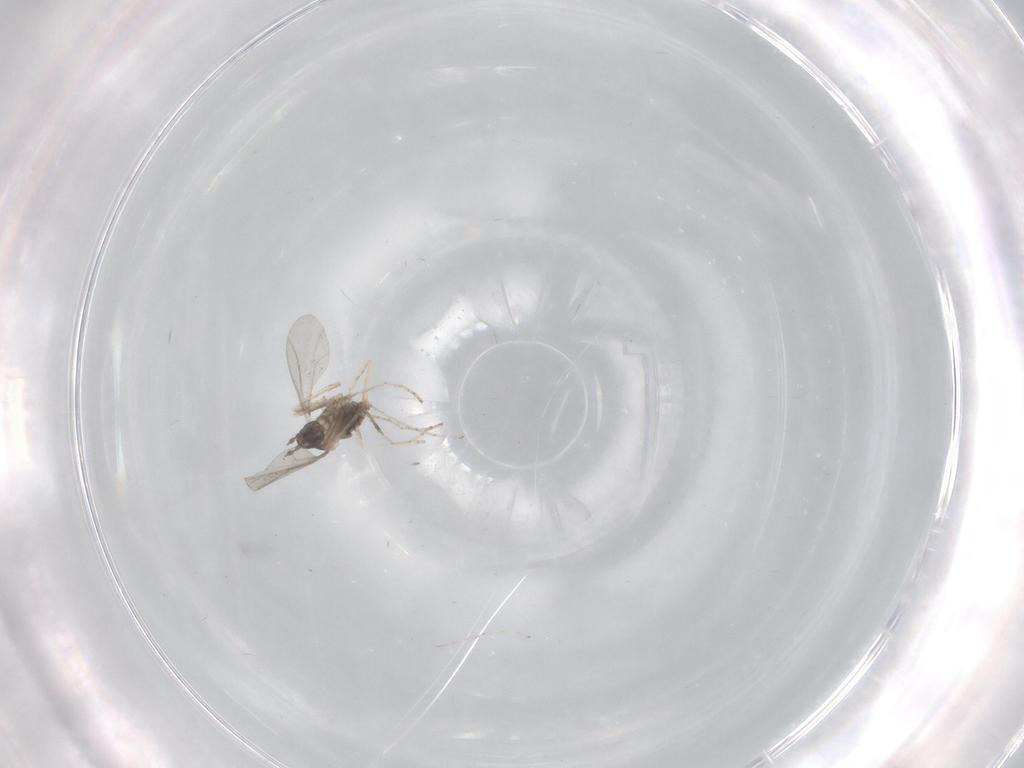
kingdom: Animalia
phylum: Arthropoda
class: Insecta
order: Diptera
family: Cecidomyiidae
